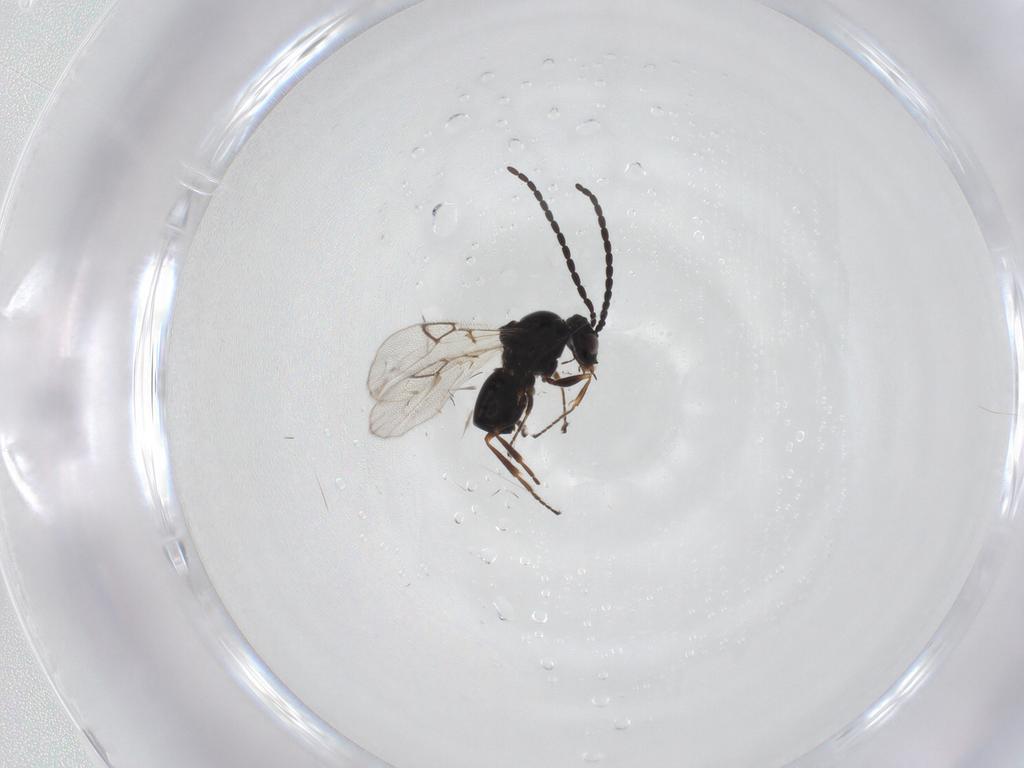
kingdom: Animalia
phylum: Arthropoda
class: Insecta
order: Hymenoptera
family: Figitidae
